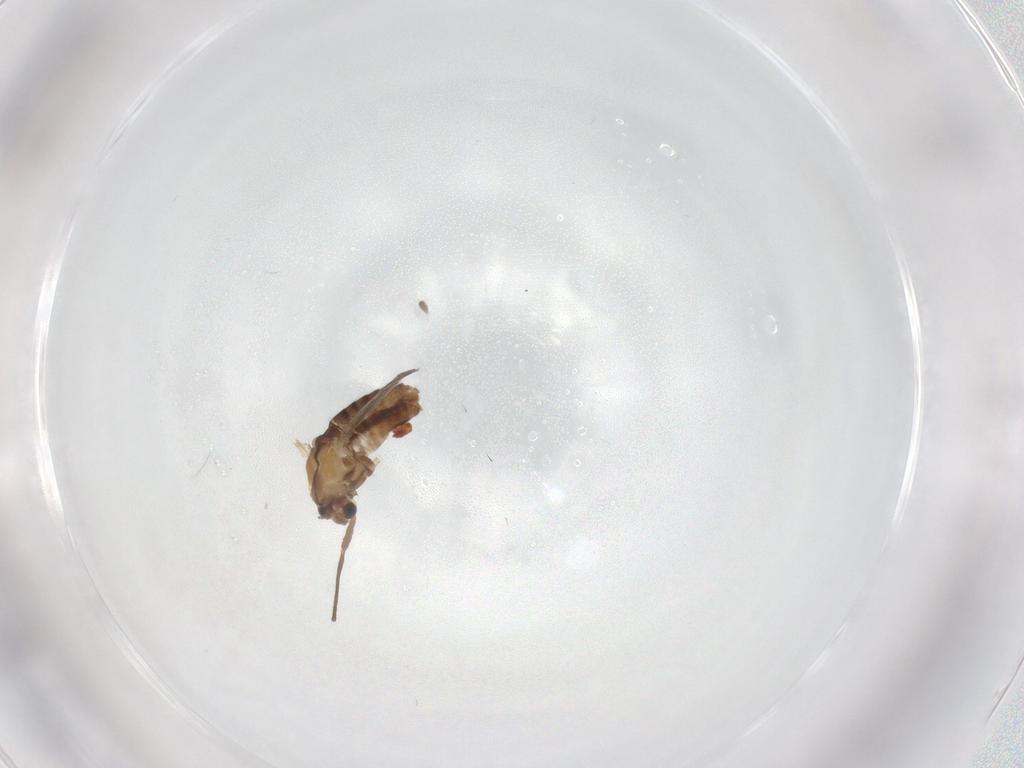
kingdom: Animalia
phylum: Arthropoda
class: Insecta
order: Diptera
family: Chironomidae
